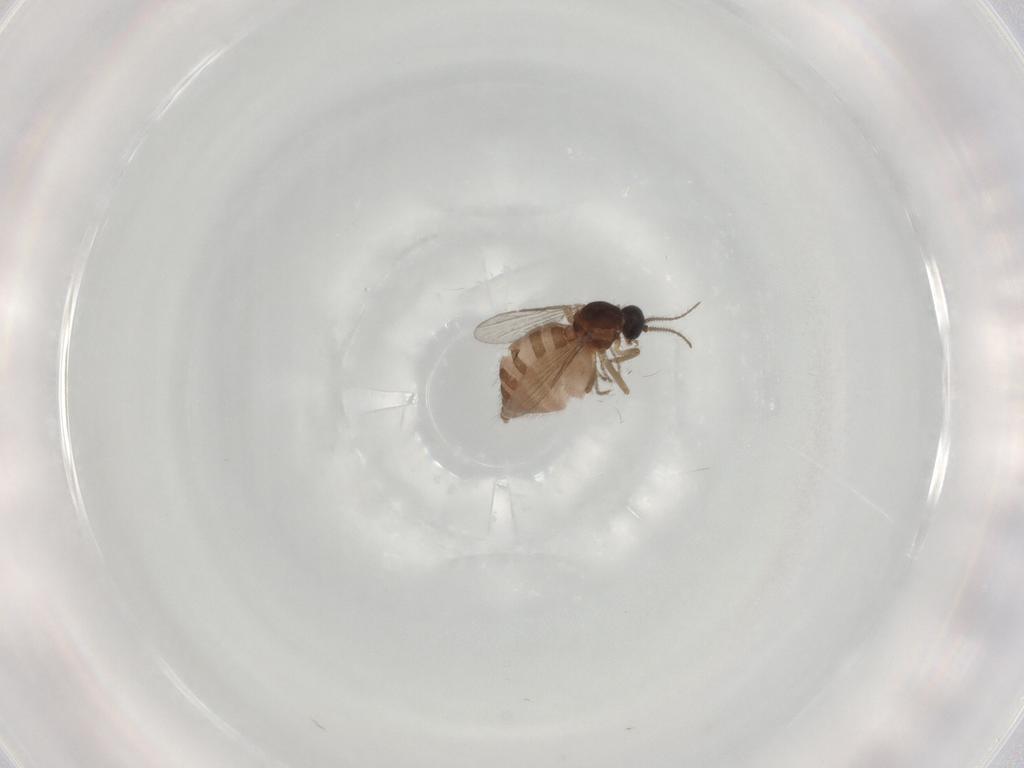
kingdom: Animalia
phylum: Arthropoda
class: Insecta
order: Diptera
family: Ceratopogonidae
